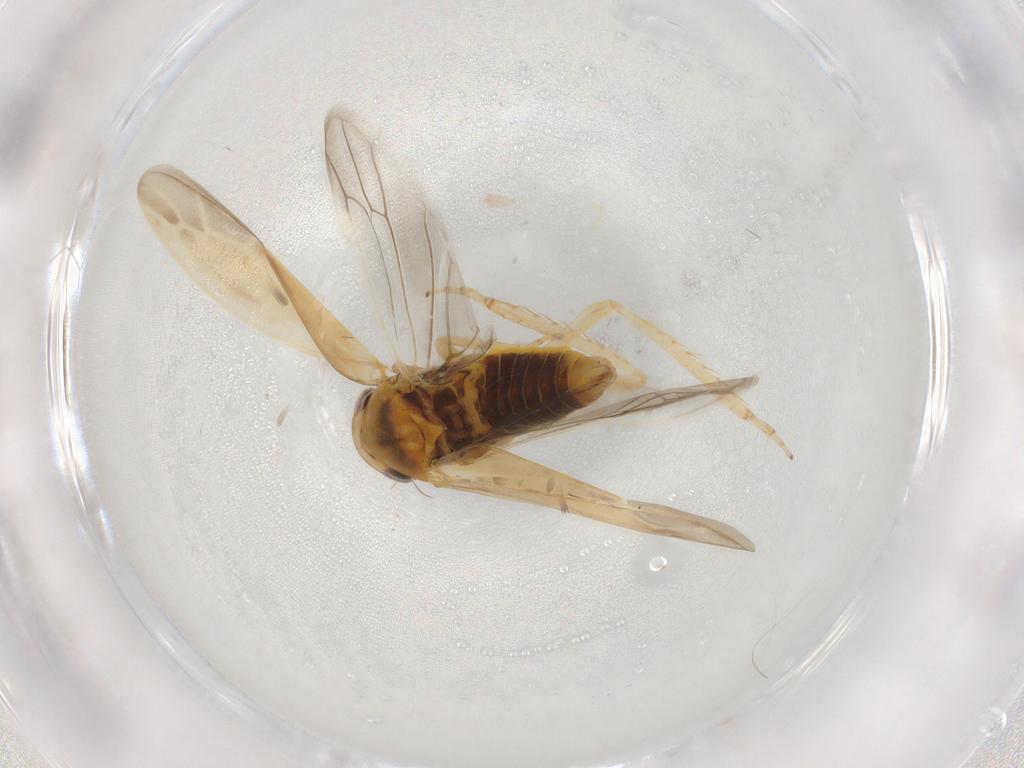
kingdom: Animalia
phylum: Arthropoda
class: Insecta
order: Hemiptera
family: Cicadellidae
